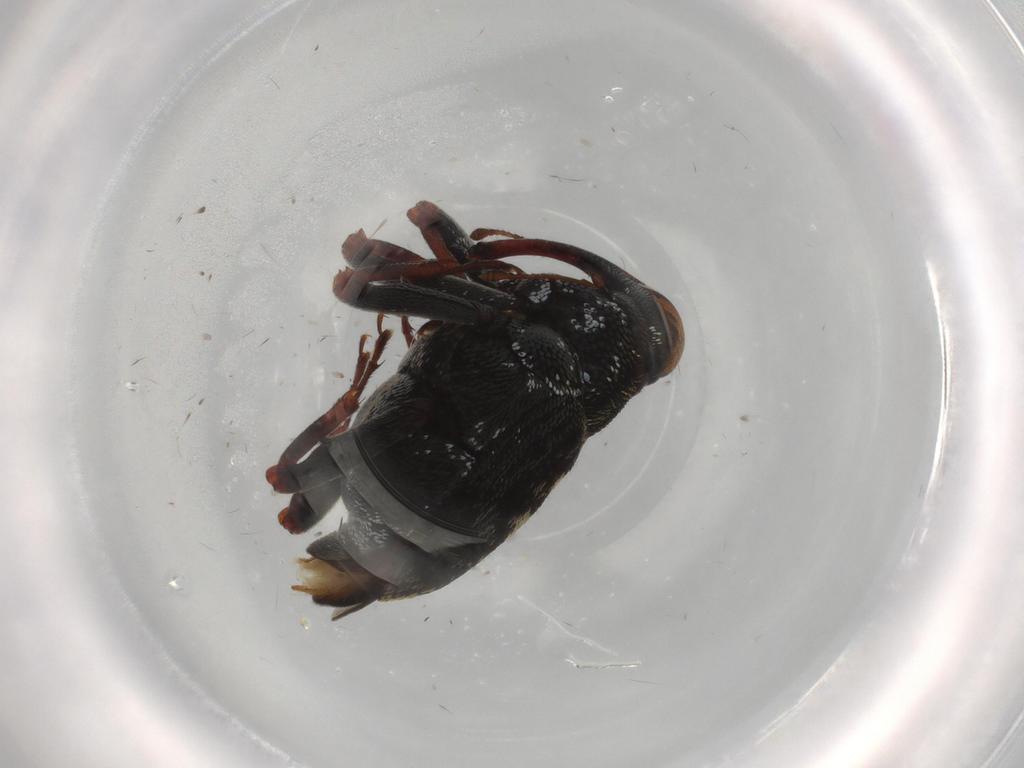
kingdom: Animalia
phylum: Arthropoda
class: Insecta
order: Coleoptera
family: Curculionidae
